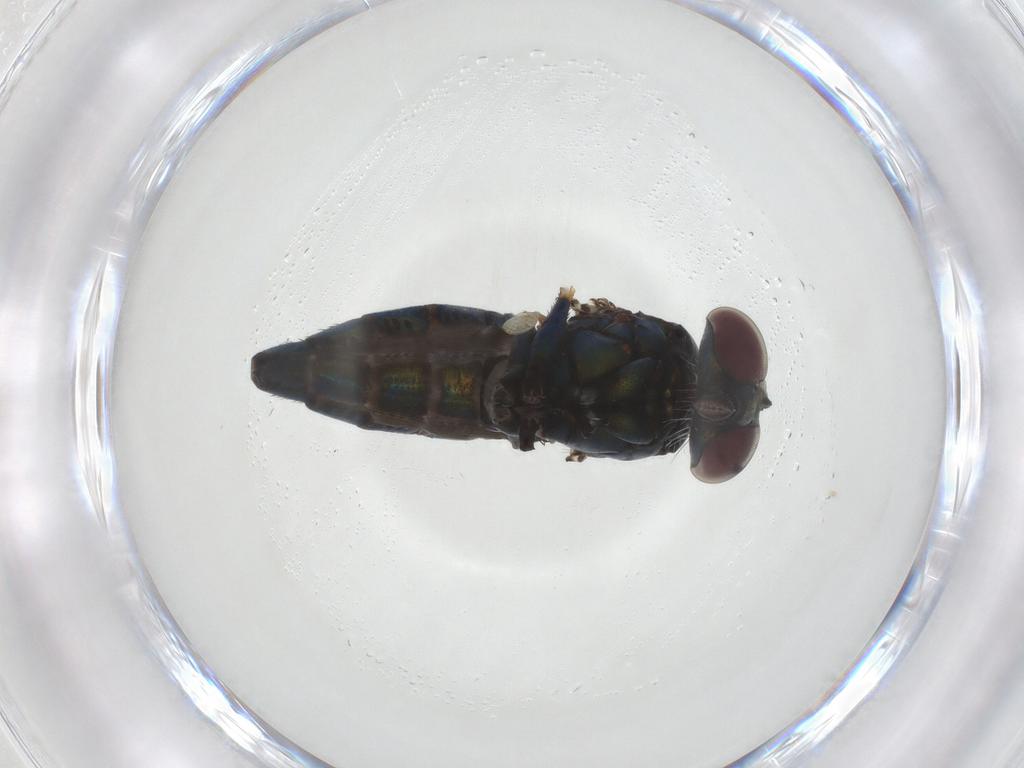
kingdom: Animalia
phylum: Arthropoda
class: Insecta
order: Diptera
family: Dolichopodidae
